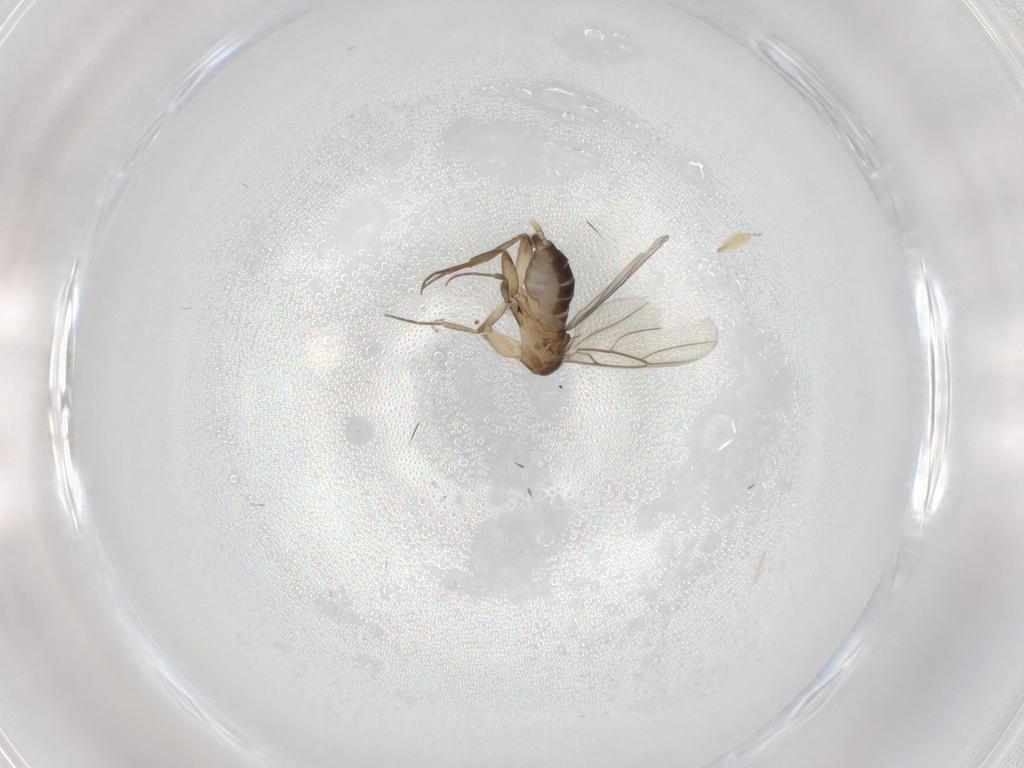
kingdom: Animalia
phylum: Arthropoda
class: Insecta
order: Diptera
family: Phoridae
